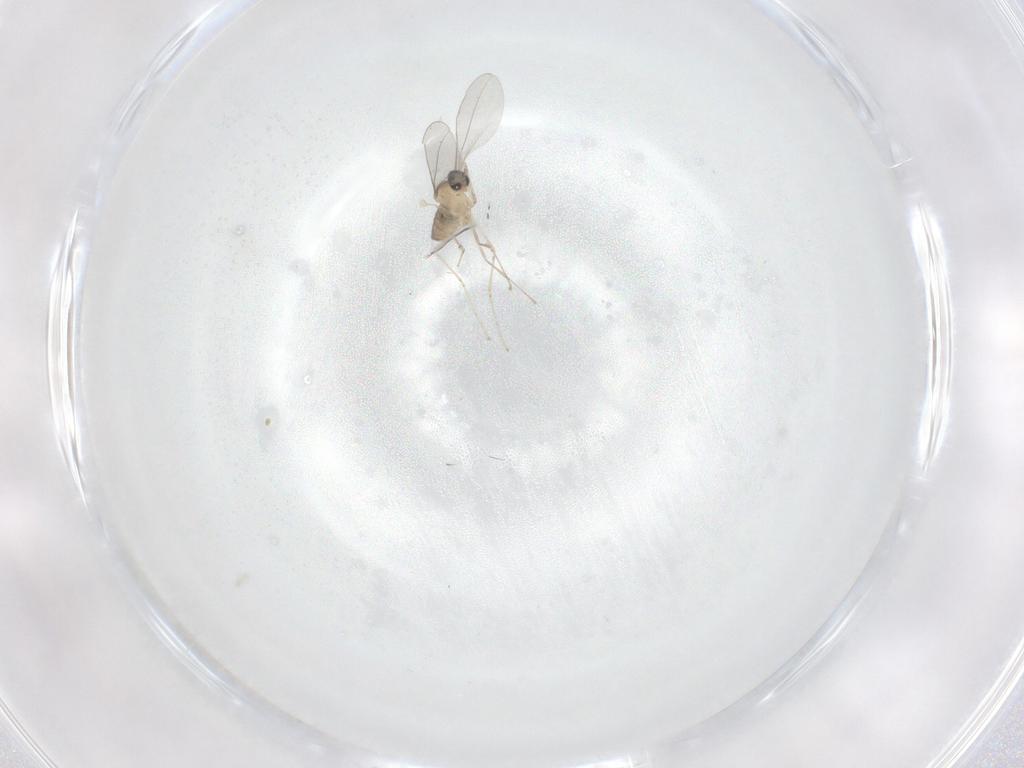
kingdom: Animalia
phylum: Arthropoda
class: Insecta
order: Diptera
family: Cecidomyiidae
